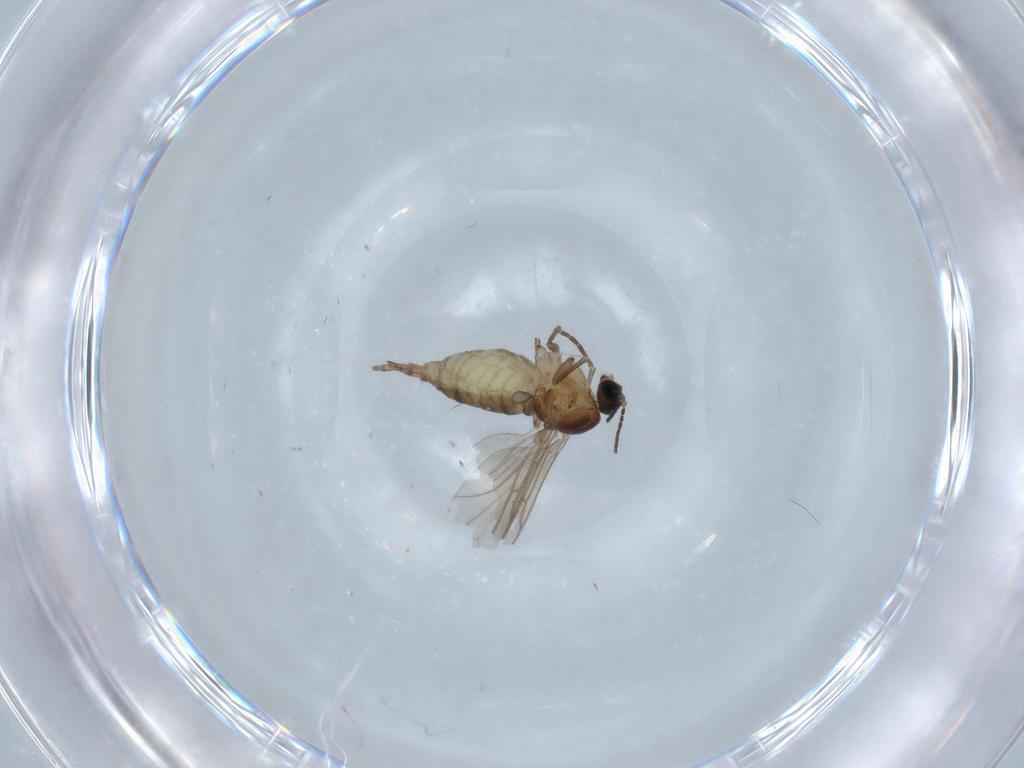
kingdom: Animalia
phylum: Arthropoda
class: Insecta
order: Diptera
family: Sciaridae
